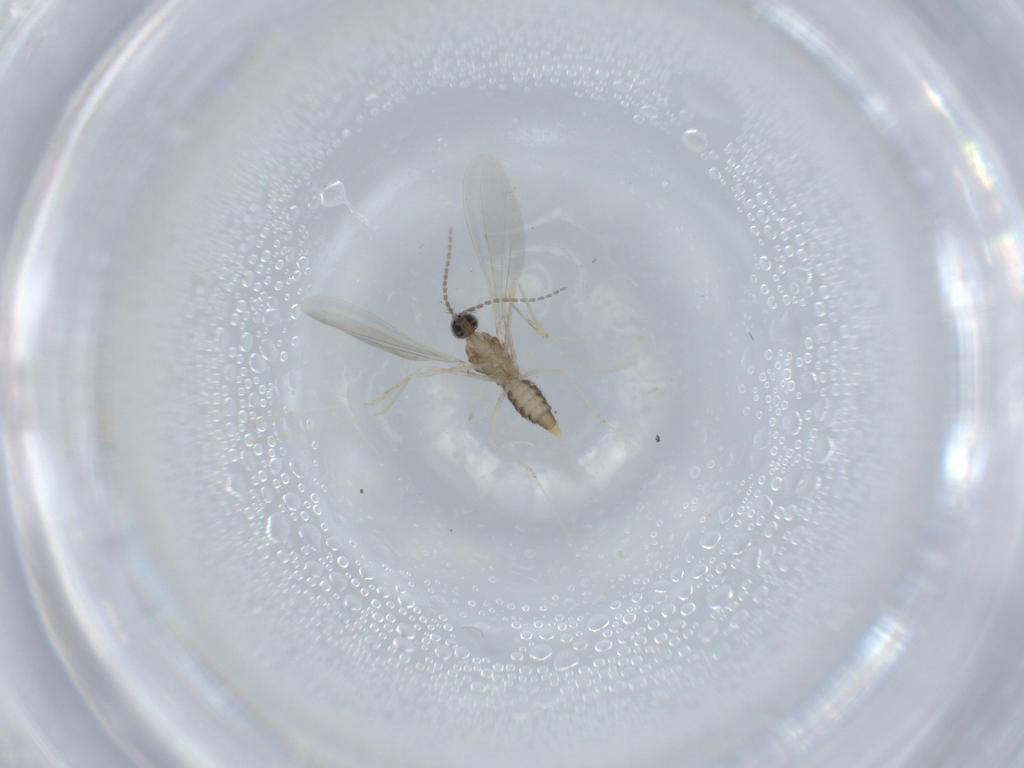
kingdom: Animalia
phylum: Arthropoda
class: Insecta
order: Diptera
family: Cecidomyiidae
